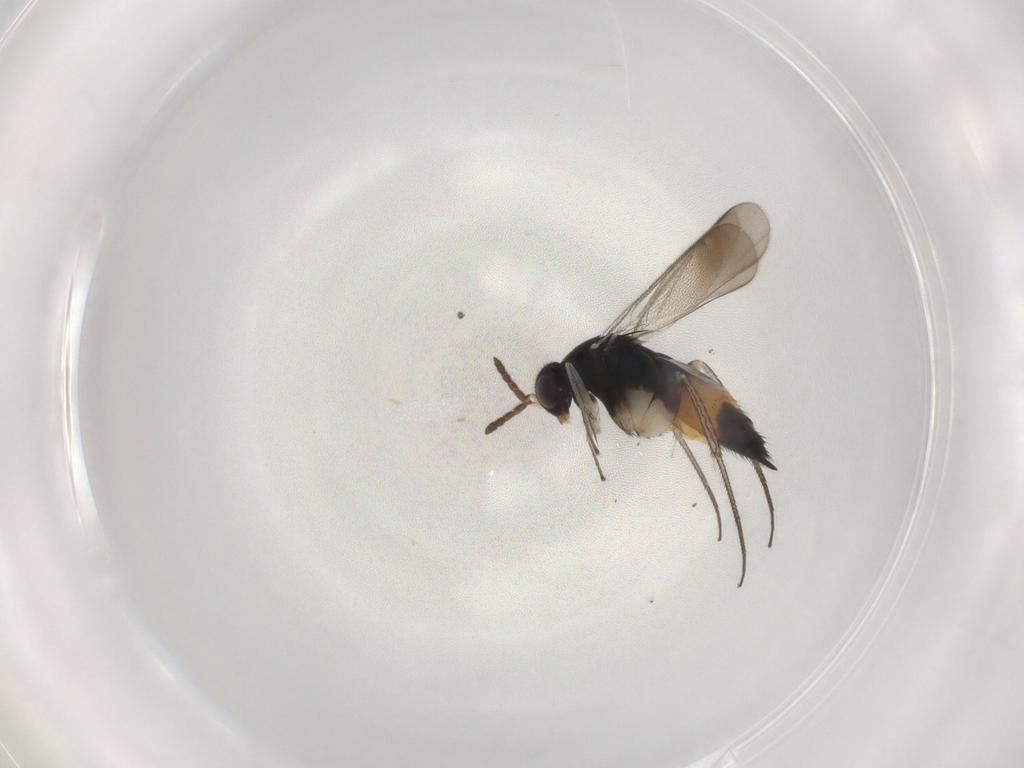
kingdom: Animalia
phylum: Arthropoda
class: Insecta
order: Hymenoptera
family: Eulophidae
